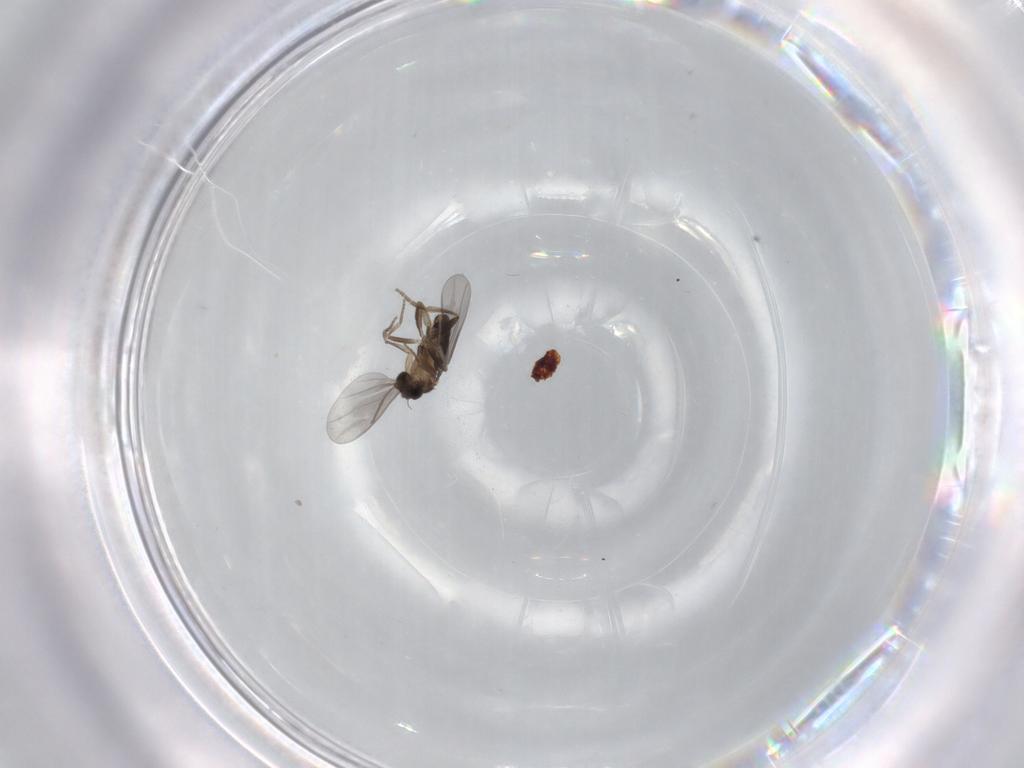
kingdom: Animalia
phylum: Arthropoda
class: Insecta
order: Diptera
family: Cecidomyiidae
